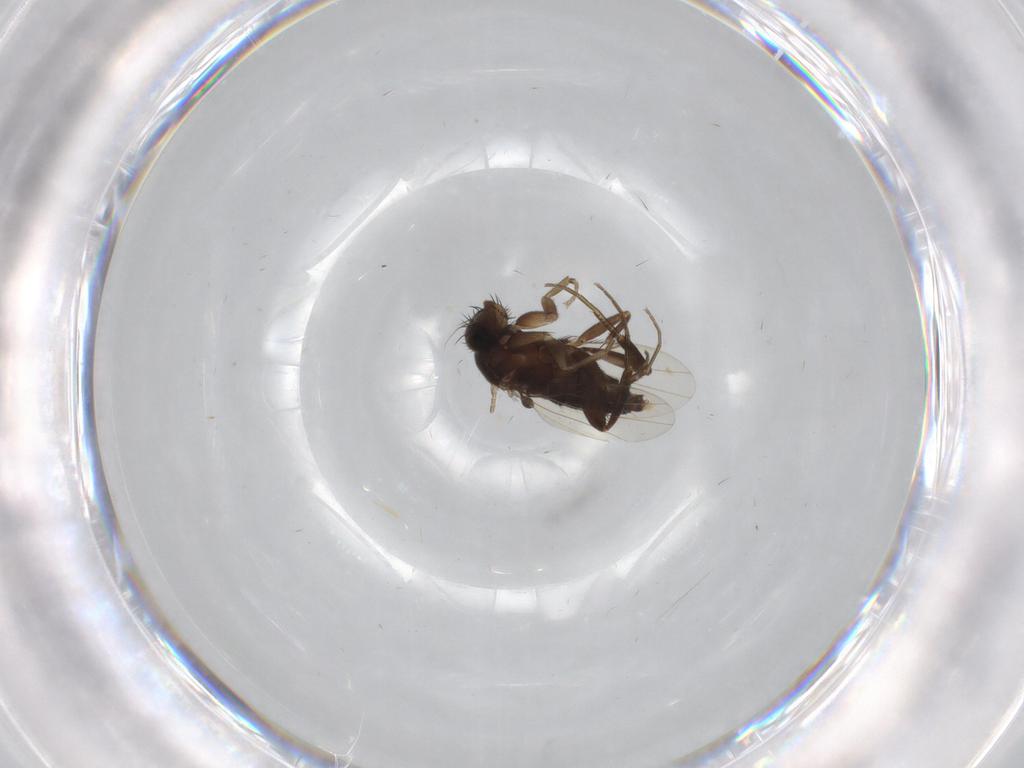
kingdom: Animalia
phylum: Arthropoda
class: Insecta
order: Diptera
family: Limoniidae
